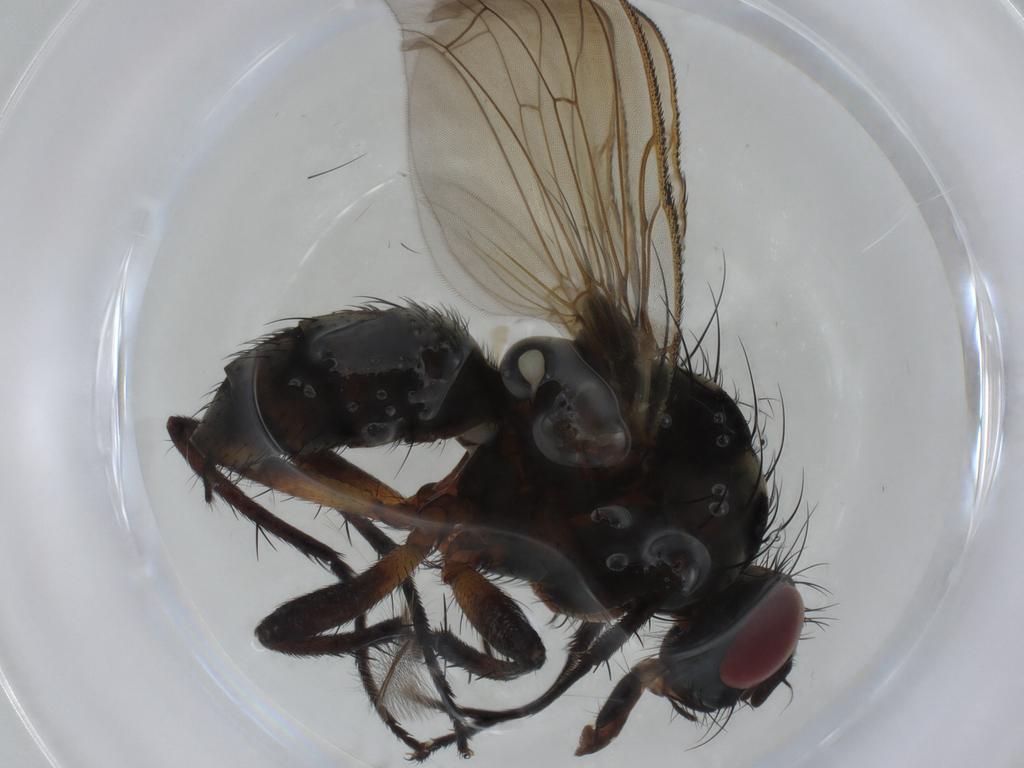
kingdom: Animalia
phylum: Arthropoda
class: Insecta
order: Diptera
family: Anthomyiidae
